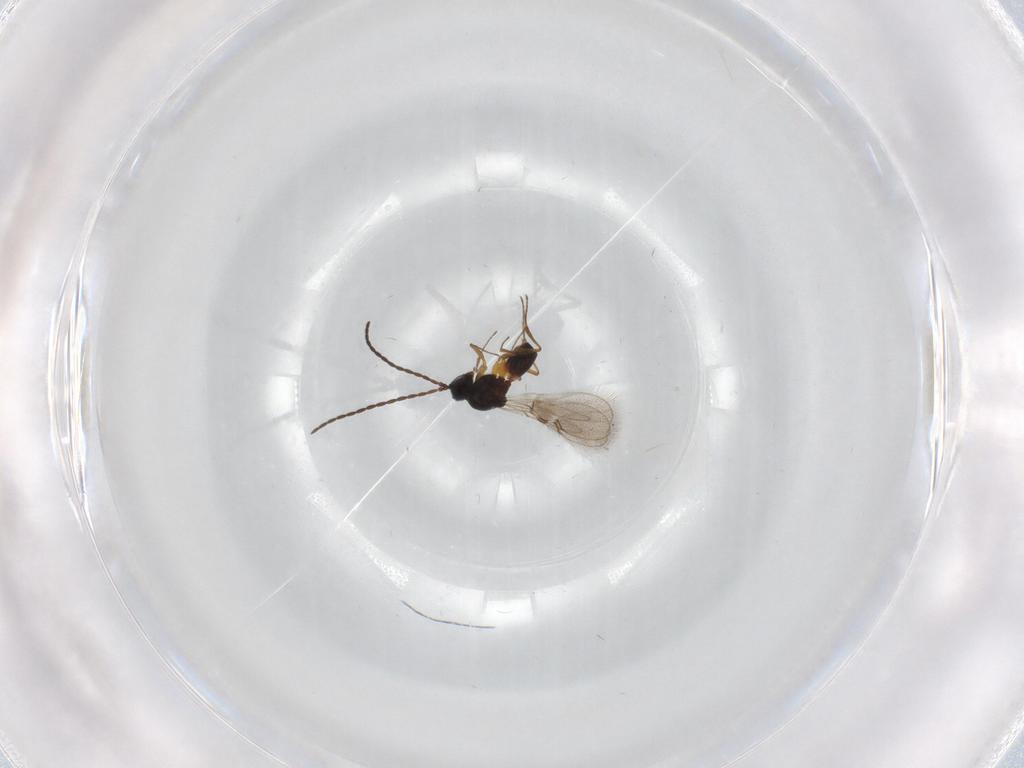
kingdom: Animalia
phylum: Arthropoda
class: Insecta
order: Hymenoptera
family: Figitidae
